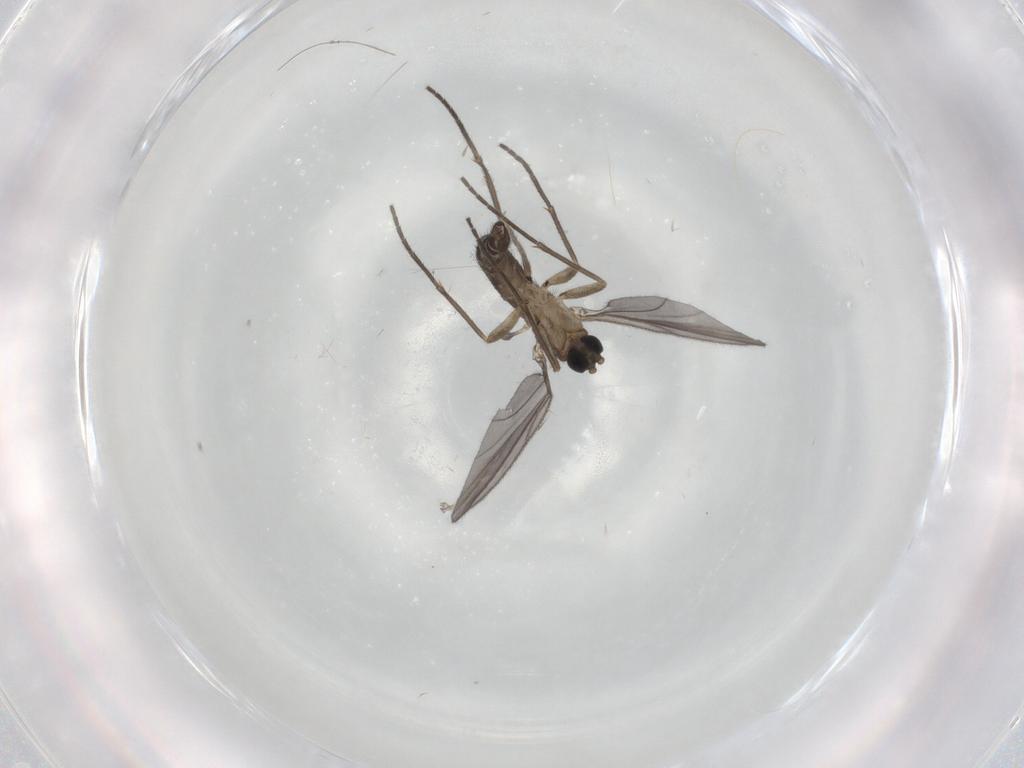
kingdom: Animalia
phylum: Arthropoda
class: Insecta
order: Diptera
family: Sciaridae
